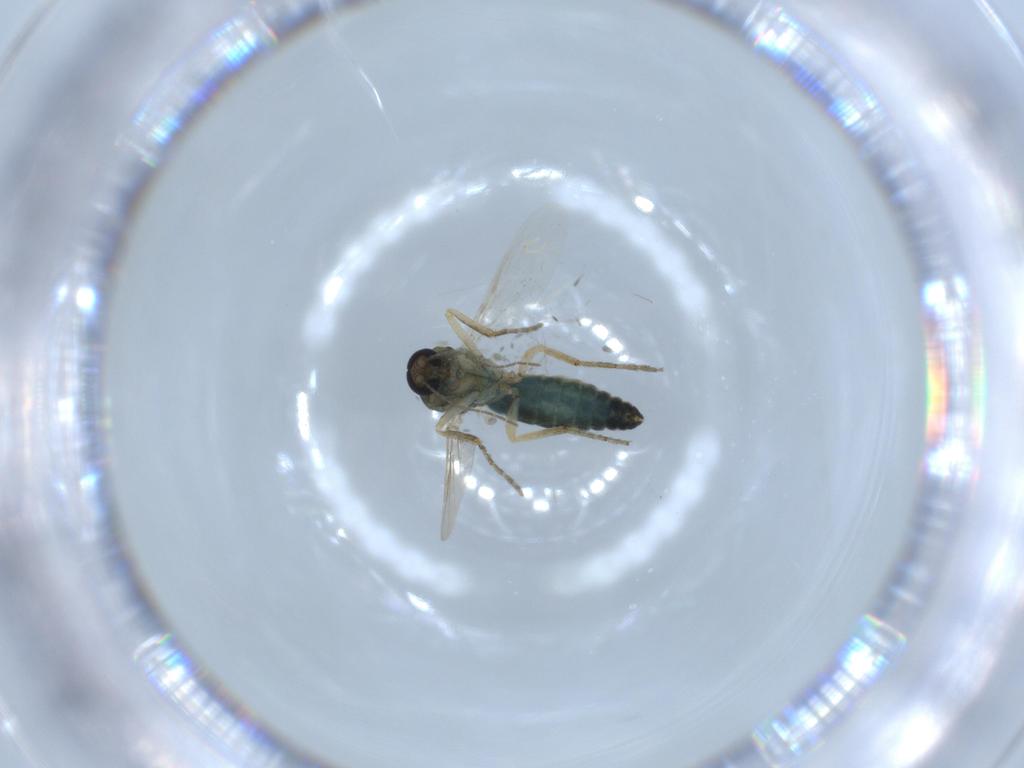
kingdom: Animalia
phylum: Arthropoda
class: Insecta
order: Diptera
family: Ceratopogonidae
